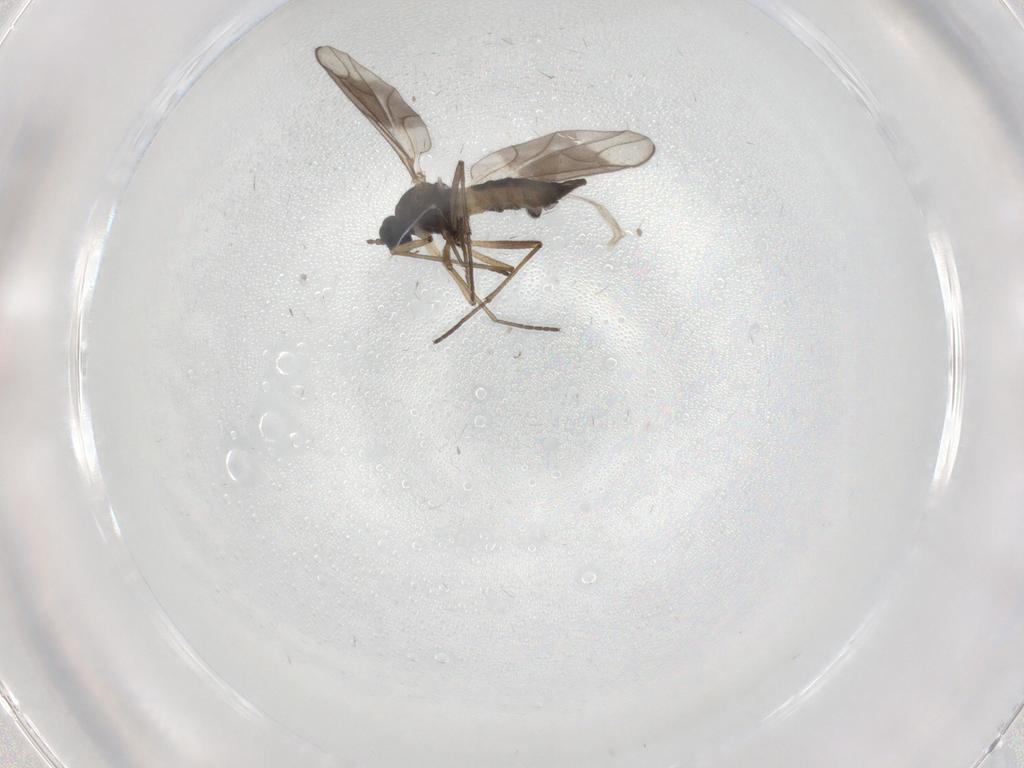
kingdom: Animalia
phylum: Arthropoda
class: Insecta
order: Diptera
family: Cecidomyiidae
